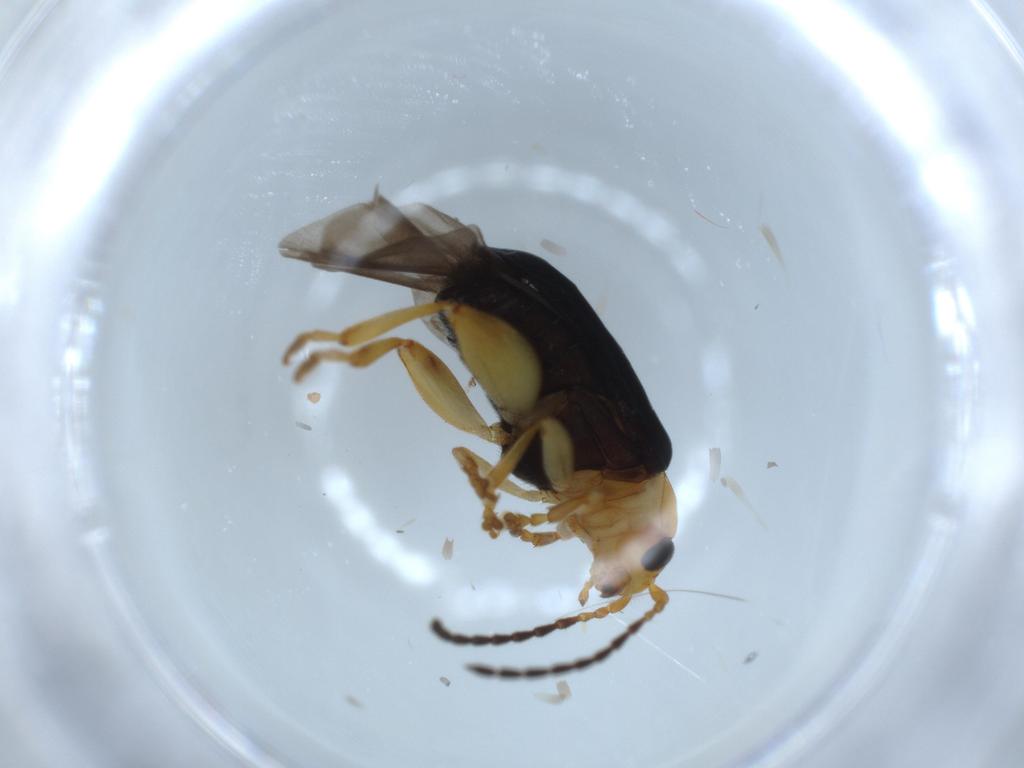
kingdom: Animalia
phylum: Arthropoda
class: Insecta
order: Coleoptera
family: Chrysomelidae
